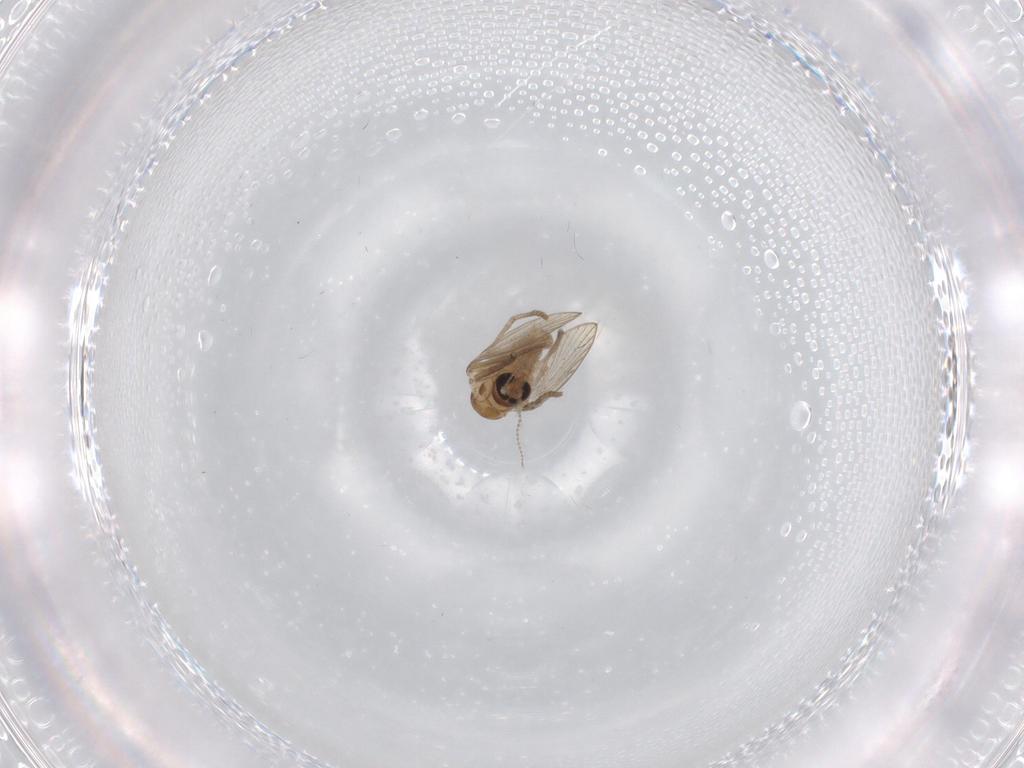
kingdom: Animalia
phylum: Arthropoda
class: Insecta
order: Diptera
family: Psychodidae
